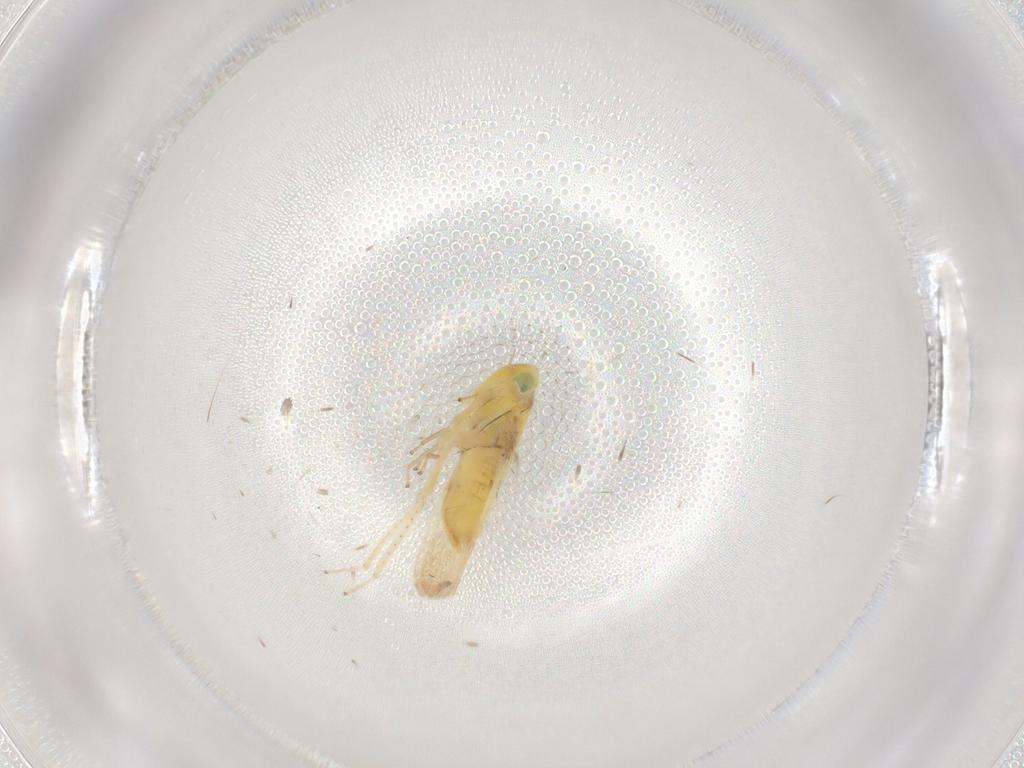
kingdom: Animalia
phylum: Arthropoda
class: Insecta
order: Hemiptera
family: Cicadellidae
